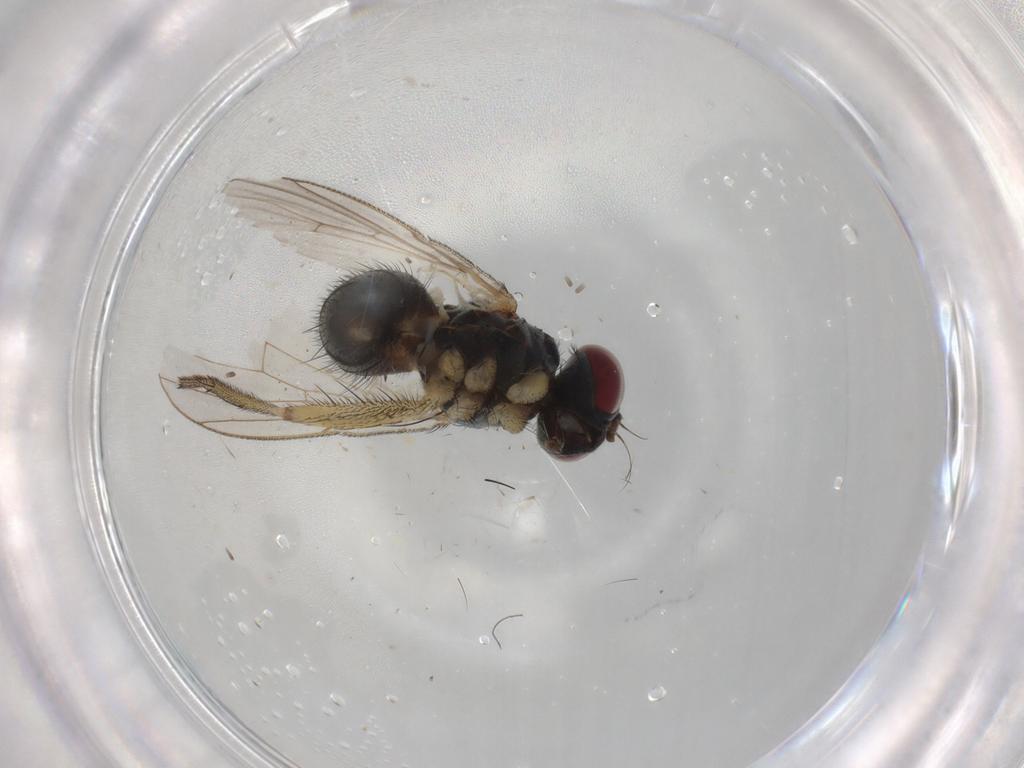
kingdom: Animalia
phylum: Arthropoda
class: Insecta
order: Diptera
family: Muscidae
